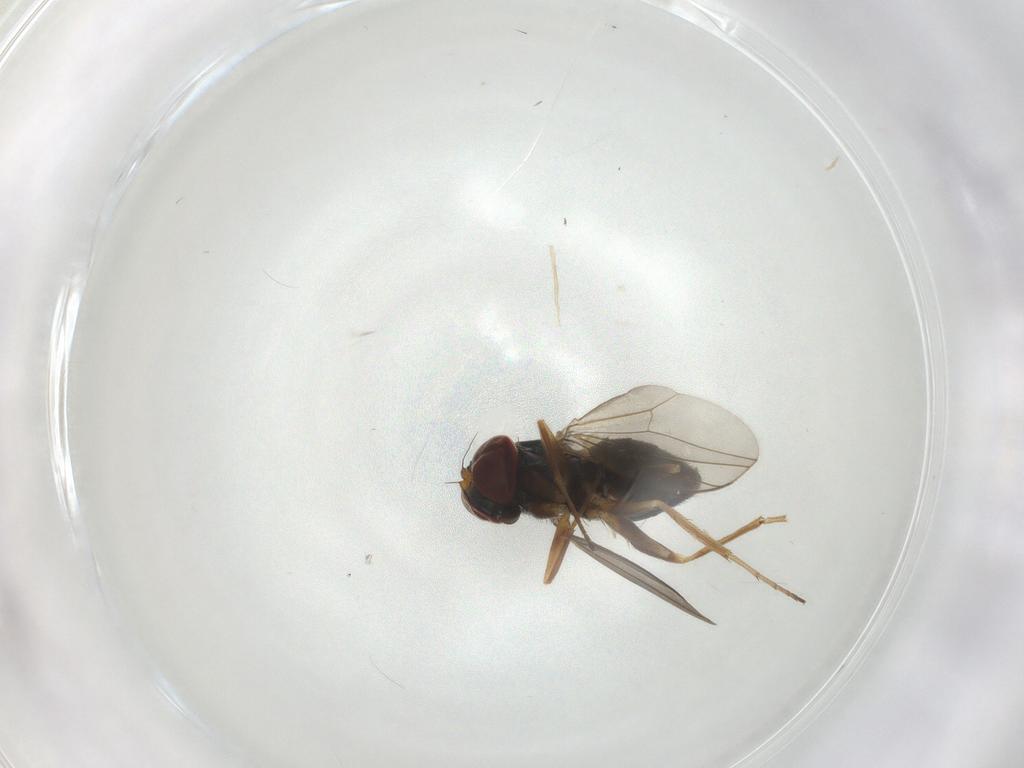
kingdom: Animalia
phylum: Arthropoda
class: Insecta
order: Diptera
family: Dolichopodidae
